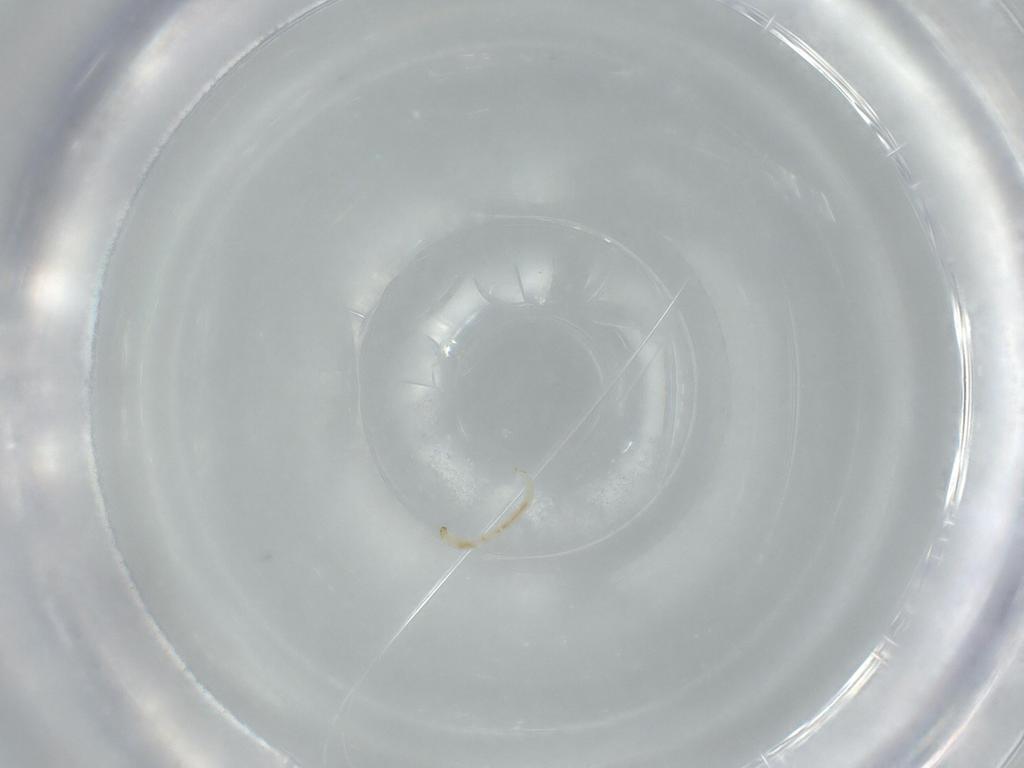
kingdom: Animalia
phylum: Arthropoda
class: Insecta
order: Diptera
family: Chironomidae
